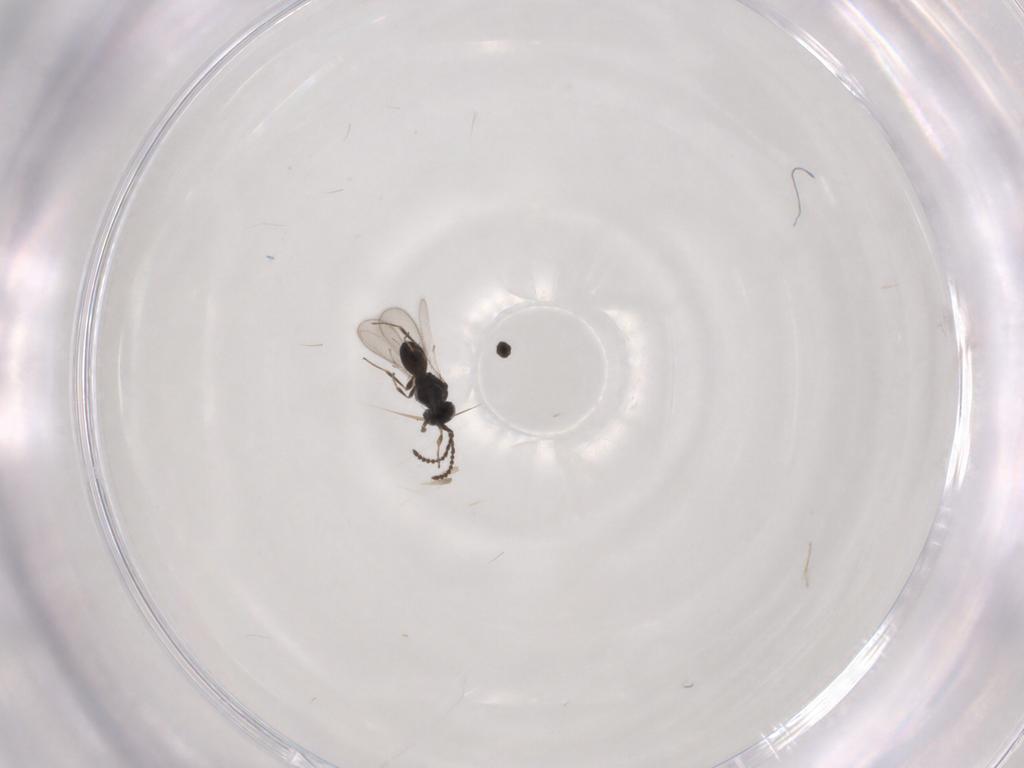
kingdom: Animalia
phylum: Arthropoda
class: Insecta
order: Hymenoptera
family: Scelionidae
